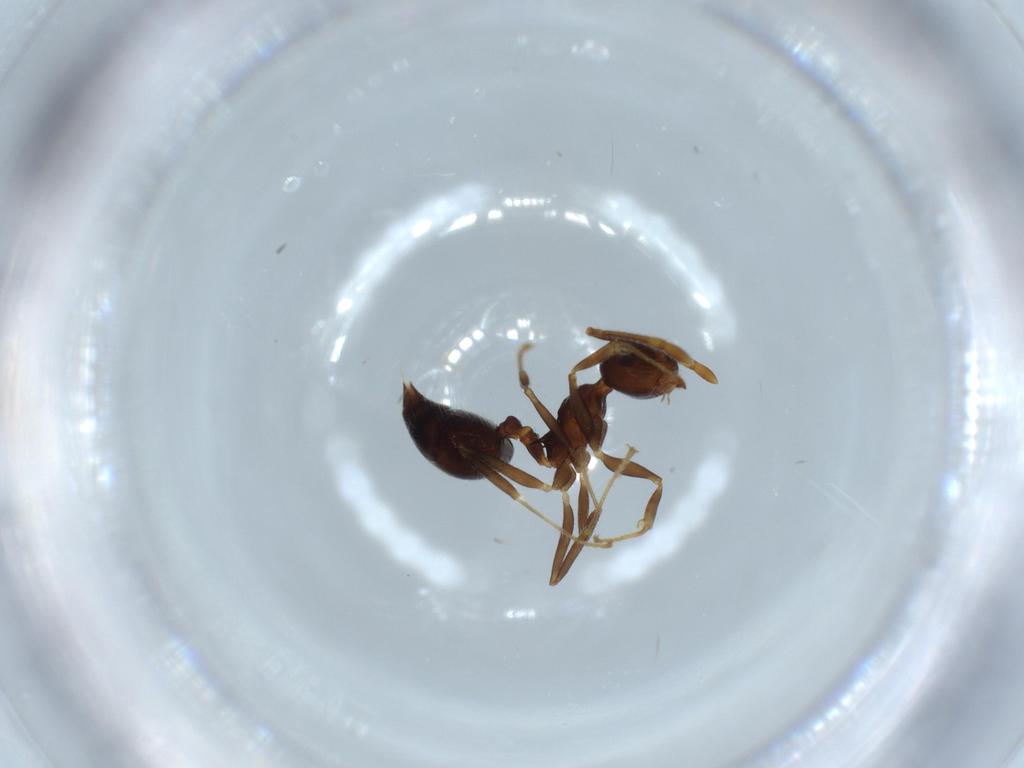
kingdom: Animalia
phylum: Arthropoda
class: Insecta
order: Hymenoptera
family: Formicidae
